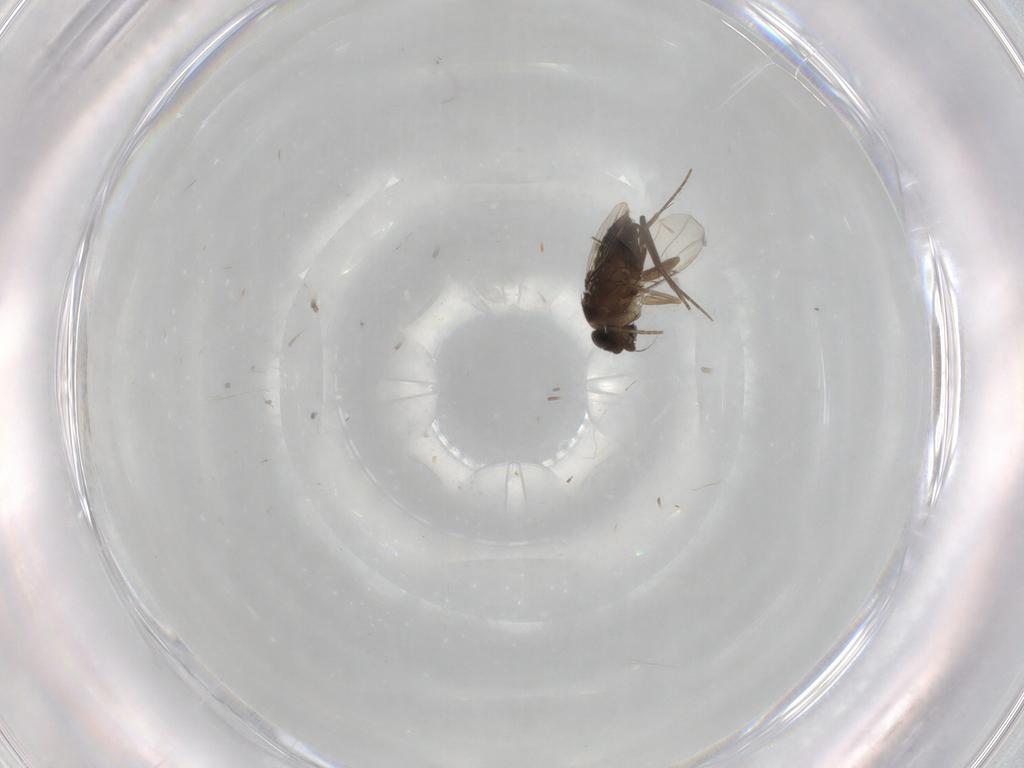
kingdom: Animalia
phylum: Arthropoda
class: Insecta
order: Diptera
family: Phoridae
